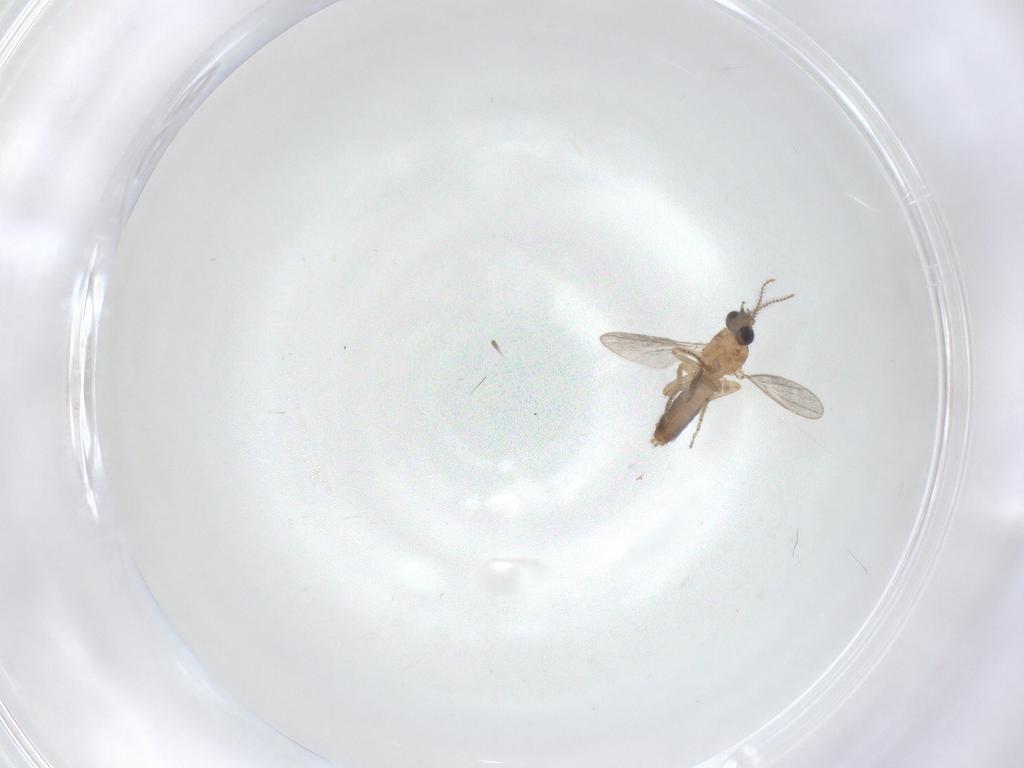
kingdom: Animalia
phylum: Arthropoda
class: Insecta
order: Diptera
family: Ceratopogonidae
